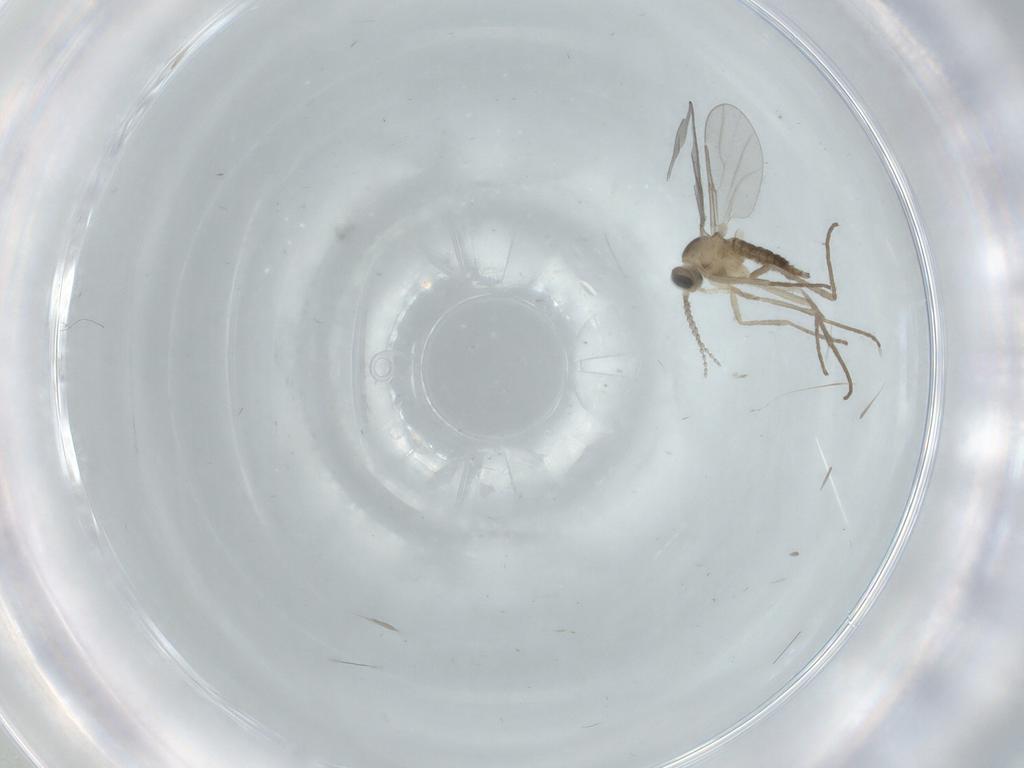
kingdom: Animalia
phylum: Arthropoda
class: Insecta
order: Diptera
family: Cecidomyiidae
